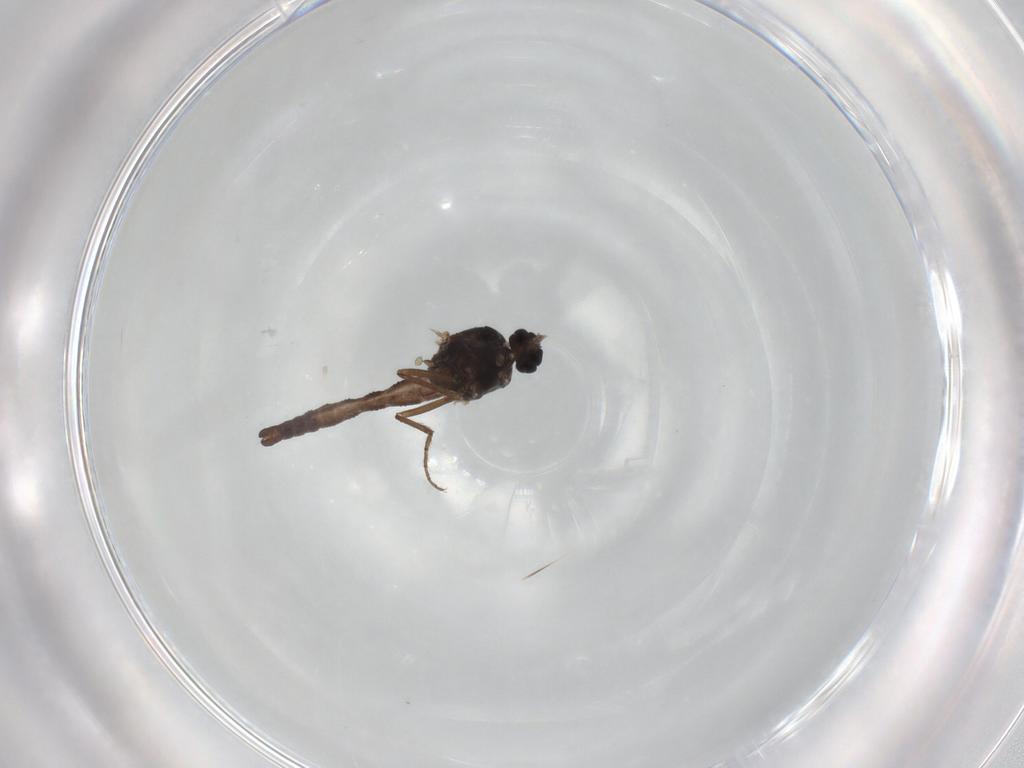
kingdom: Animalia
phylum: Arthropoda
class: Insecta
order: Diptera
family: Ceratopogonidae
